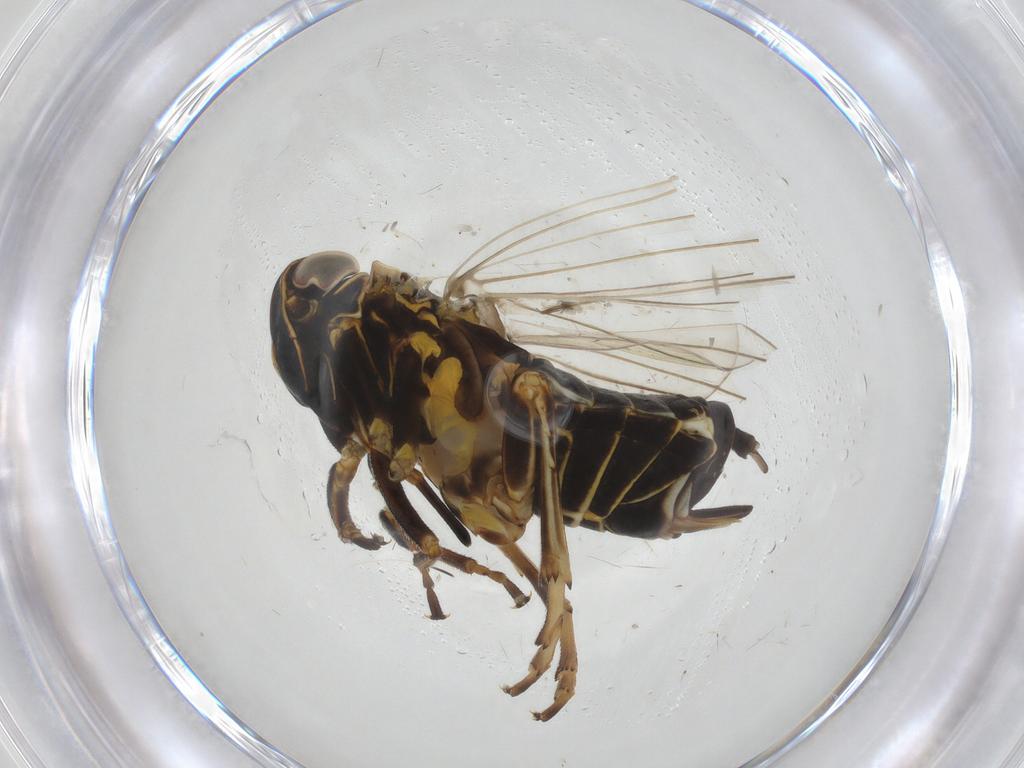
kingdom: Animalia
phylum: Arthropoda
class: Insecta
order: Hemiptera
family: Cixiidae
